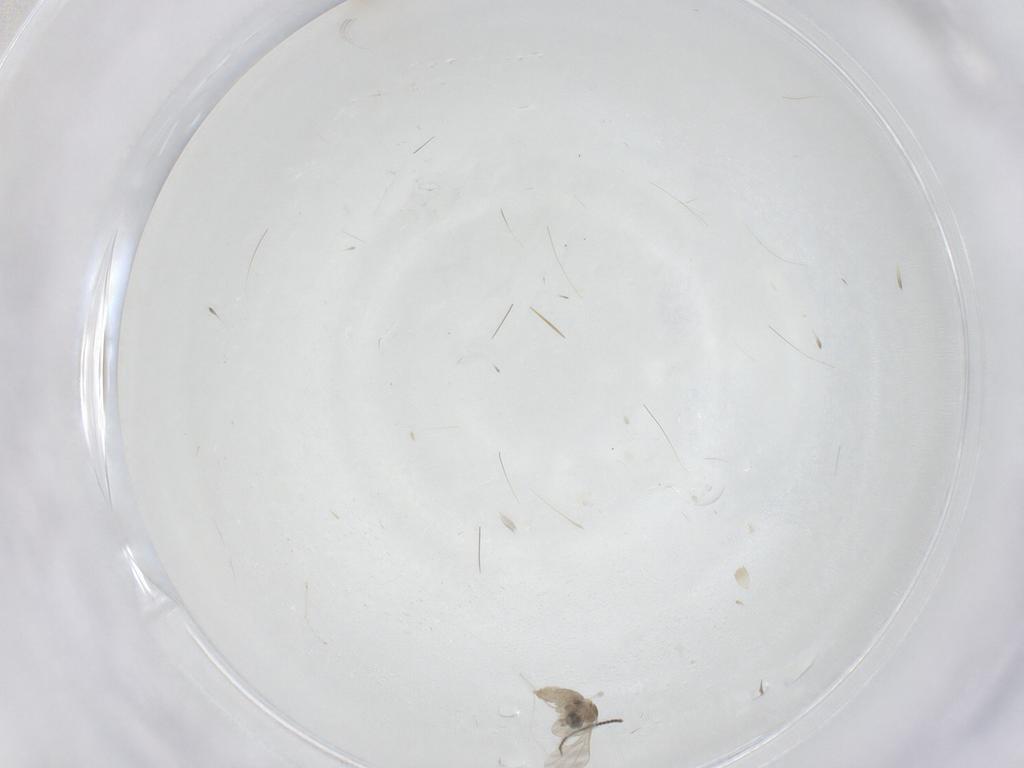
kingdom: Animalia
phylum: Arthropoda
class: Insecta
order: Diptera
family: Cecidomyiidae
